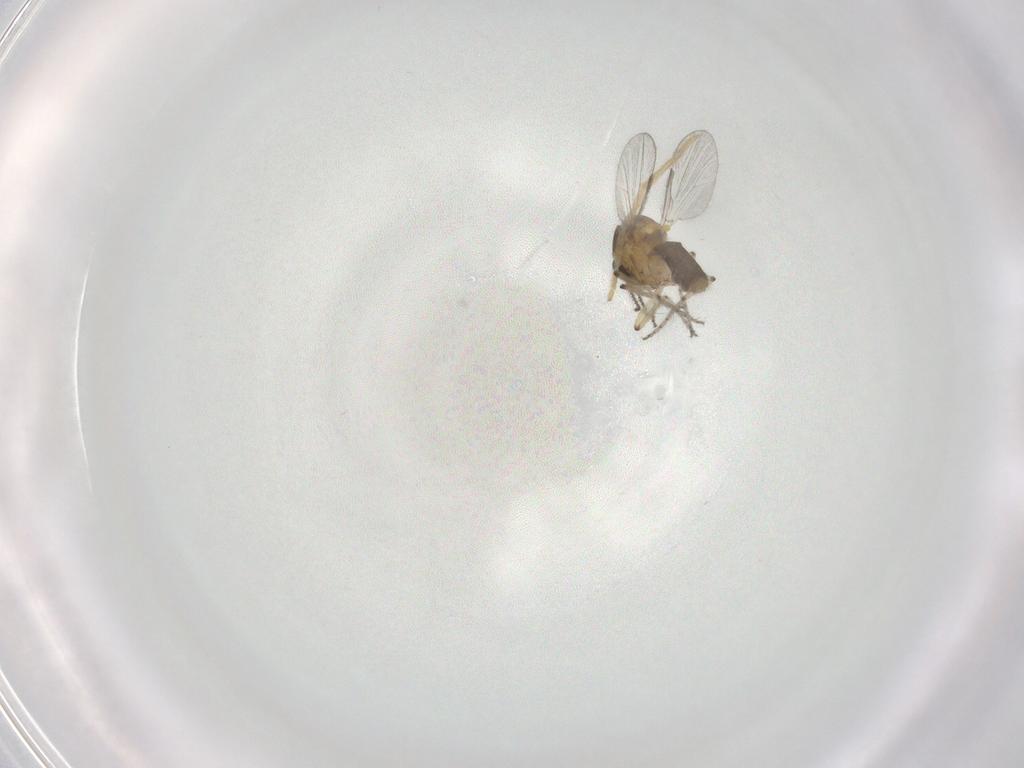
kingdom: Animalia
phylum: Arthropoda
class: Insecta
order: Diptera
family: Ceratopogonidae
